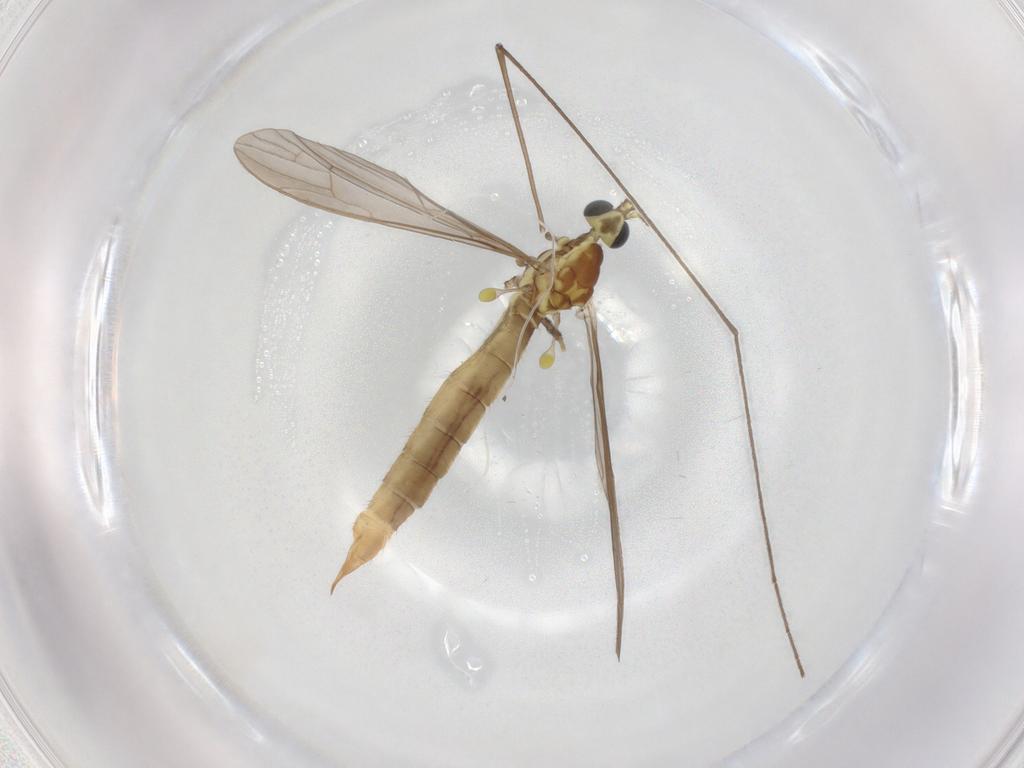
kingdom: Animalia
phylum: Arthropoda
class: Insecta
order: Diptera
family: Psychodidae
